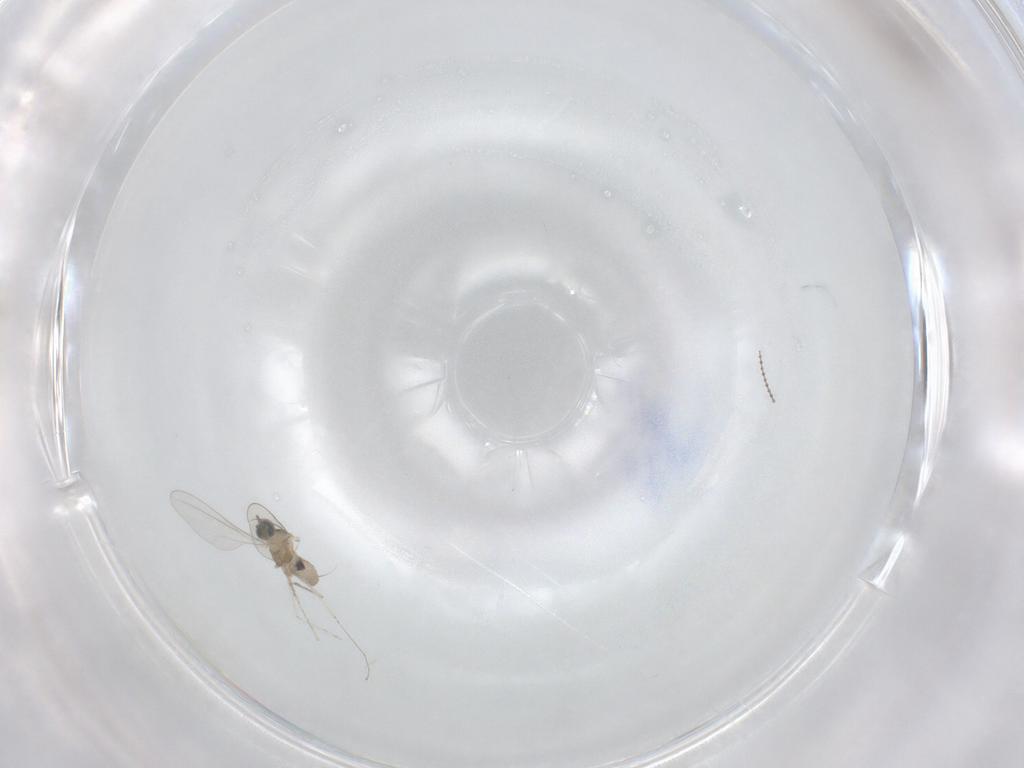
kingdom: Animalia
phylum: Arthropoda
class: Insecta
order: Diptera
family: Cecidomyiidae
